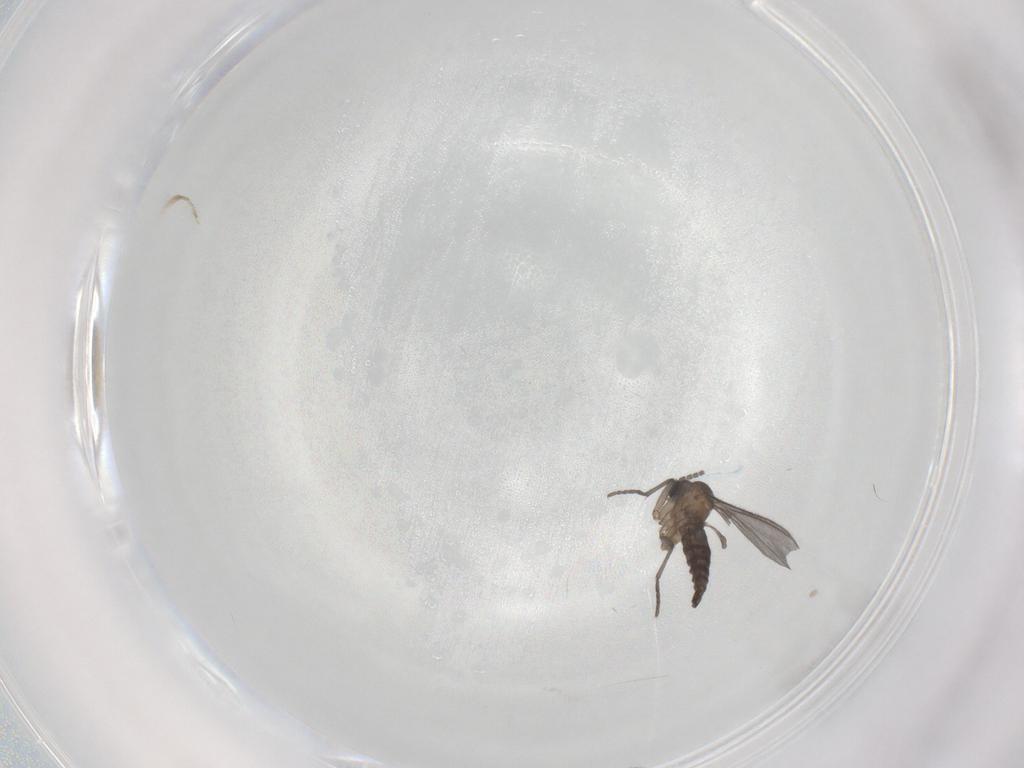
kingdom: Animalia
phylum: Arthropoda
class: Insecta
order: Diptera
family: Sciaridae
